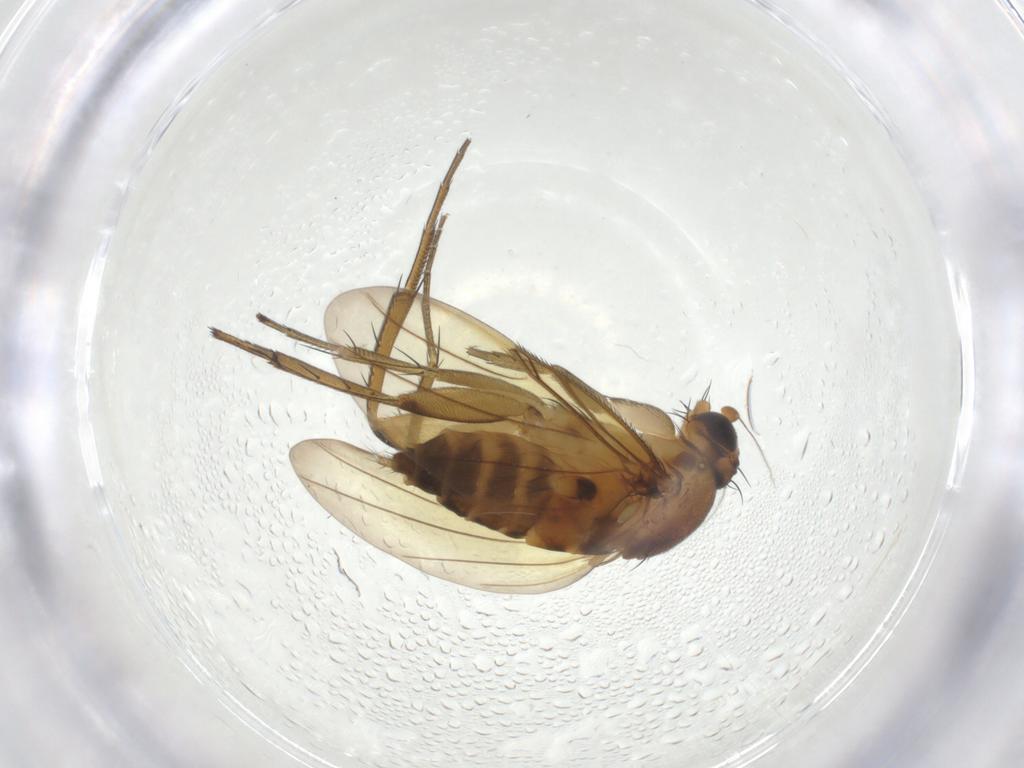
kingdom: Animalia
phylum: Arthropoda
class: Insecta
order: Diptera
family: Phoridae
